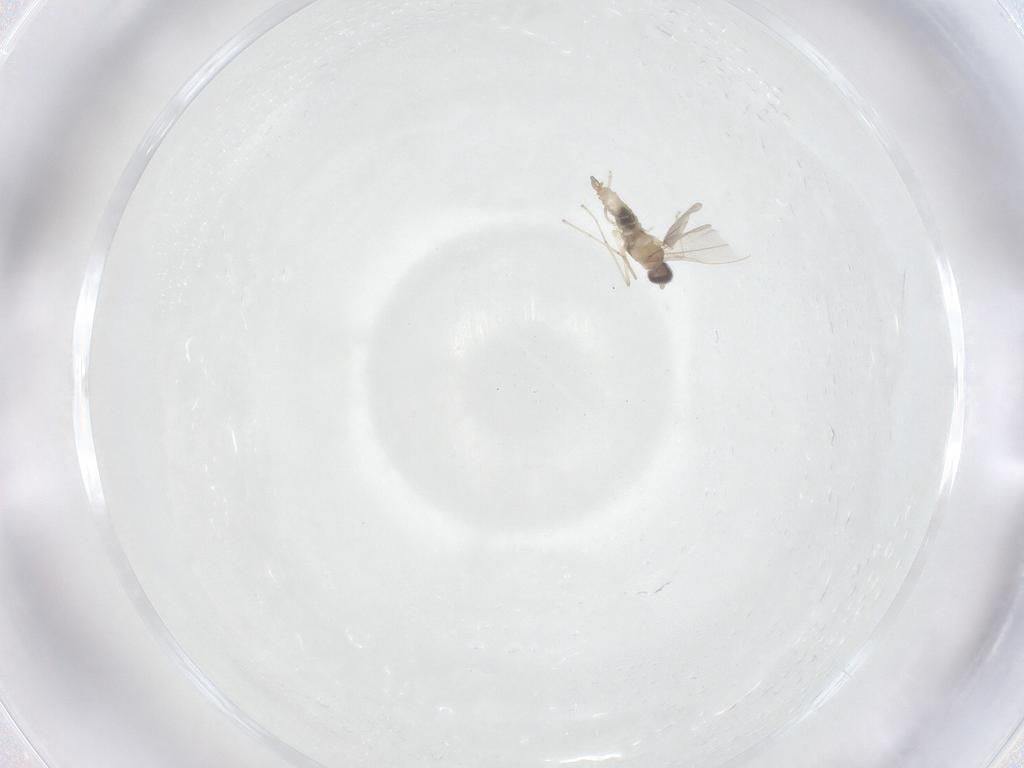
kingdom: Animalia
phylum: Arthropoda
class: Insecta
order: Diptera
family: Cecidomyiidae
